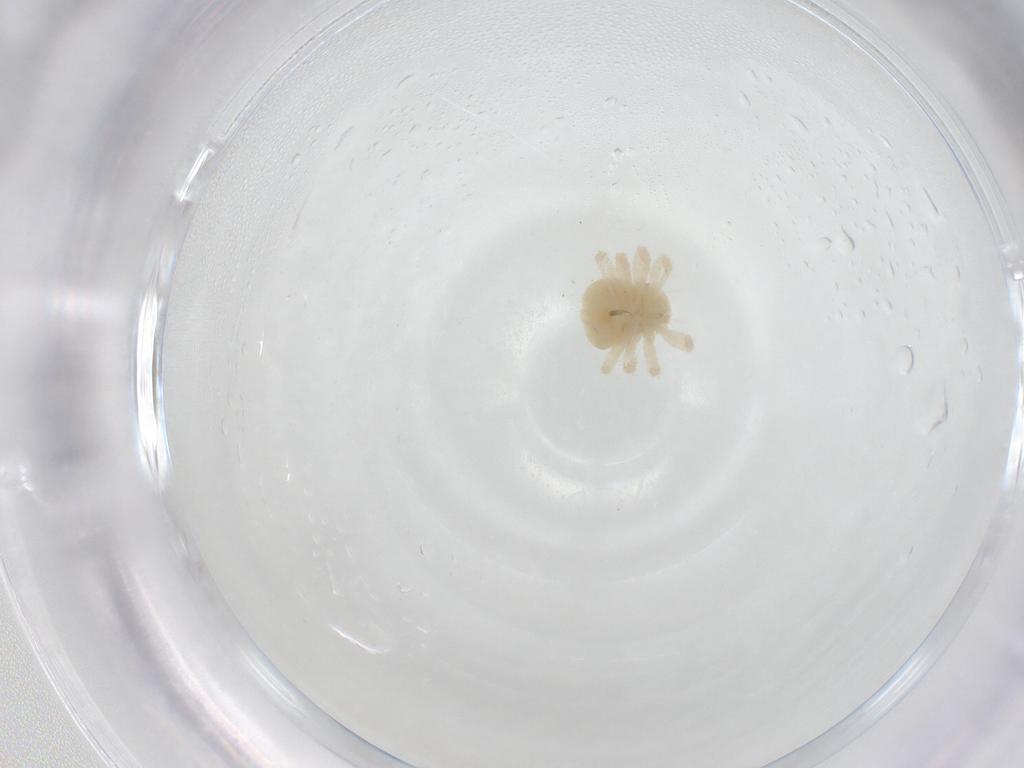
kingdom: Animalia
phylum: Arthropoda
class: Arachnida
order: Trombidiformes
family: Anystidae
